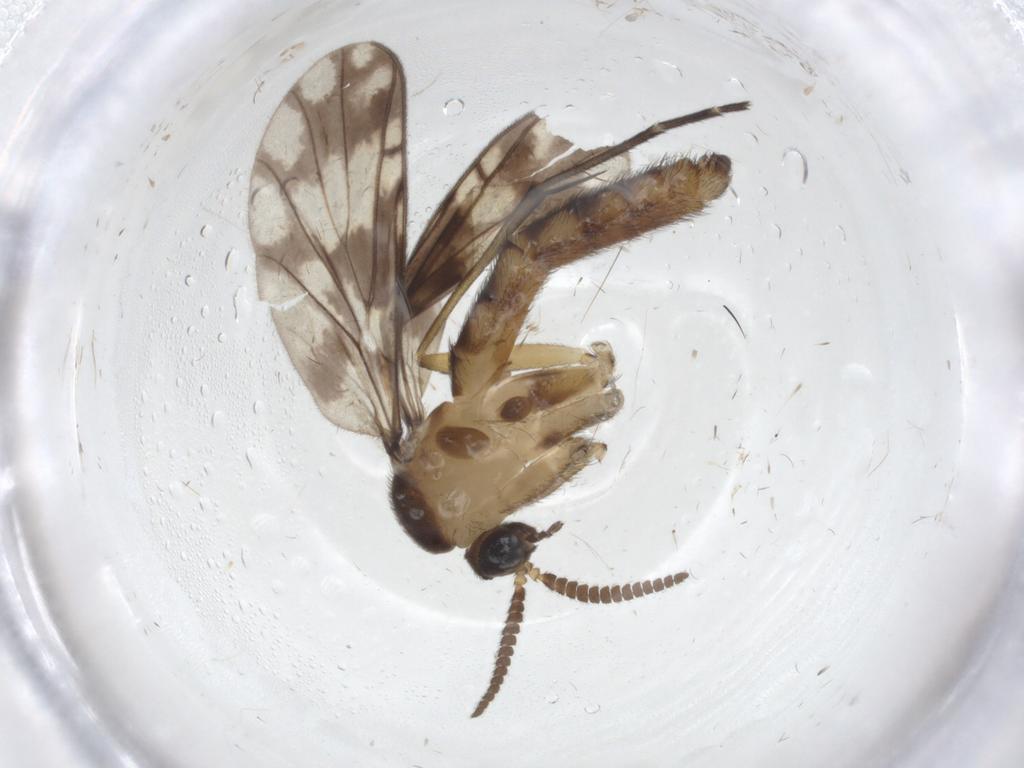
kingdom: Animalia
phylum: Arthropoda
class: Insecta
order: Diptera
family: Keroplatidae
